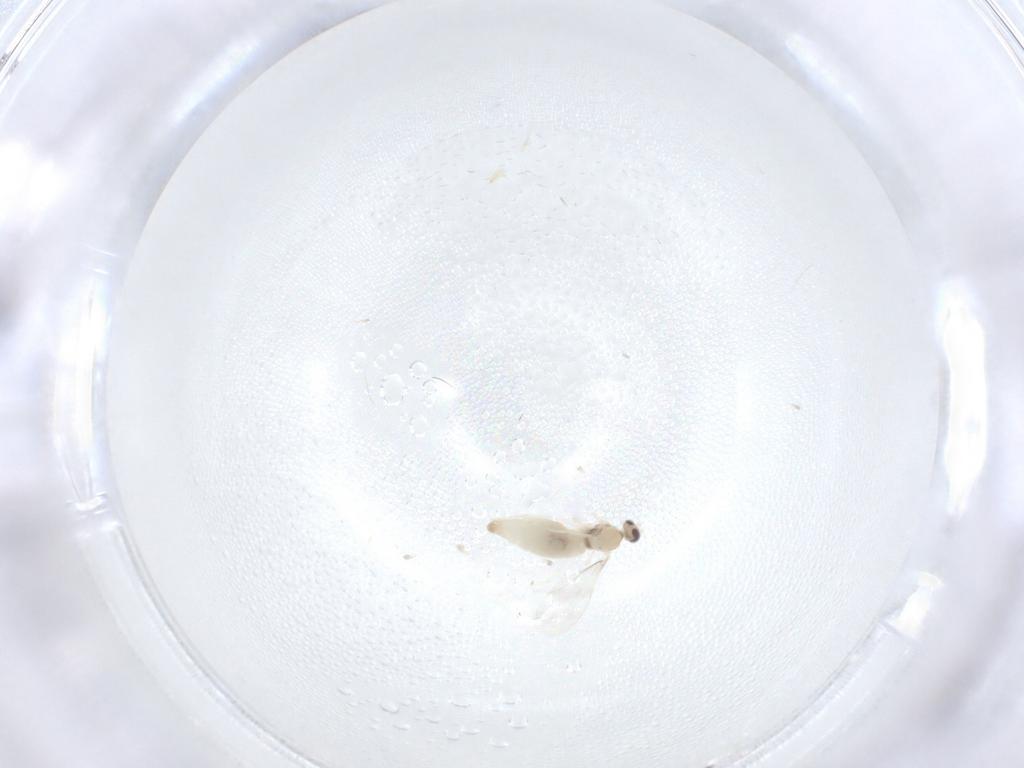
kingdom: Animalia
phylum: Arthropoda
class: Insecta
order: Diptera
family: Cecidomyiidae
